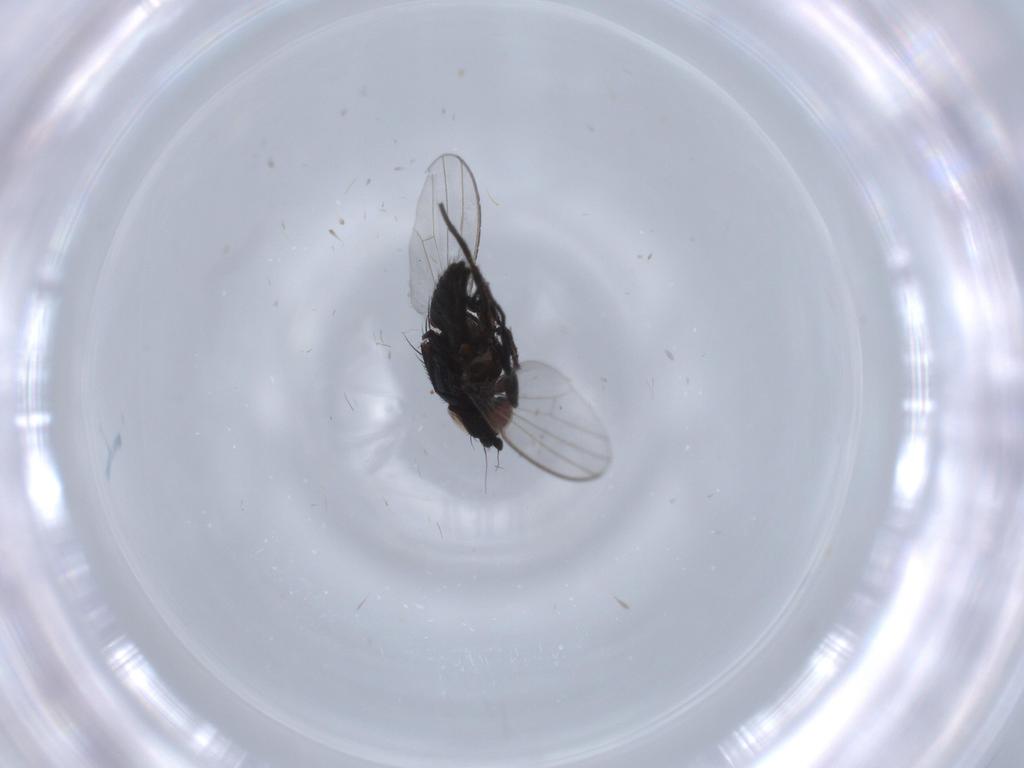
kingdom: Animalia
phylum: Arthropoda
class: Insecta
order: Diptera
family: Milichiidae
